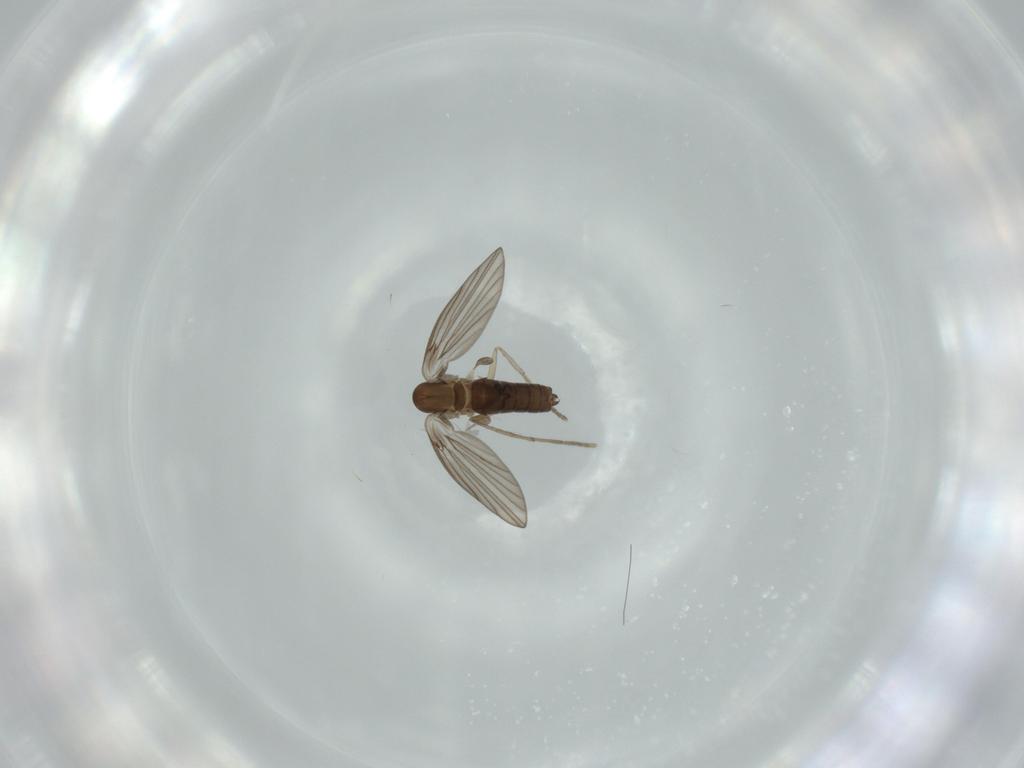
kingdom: Animalia
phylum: Arthropoda
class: Insecta
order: Diptera
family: Psychodidae
